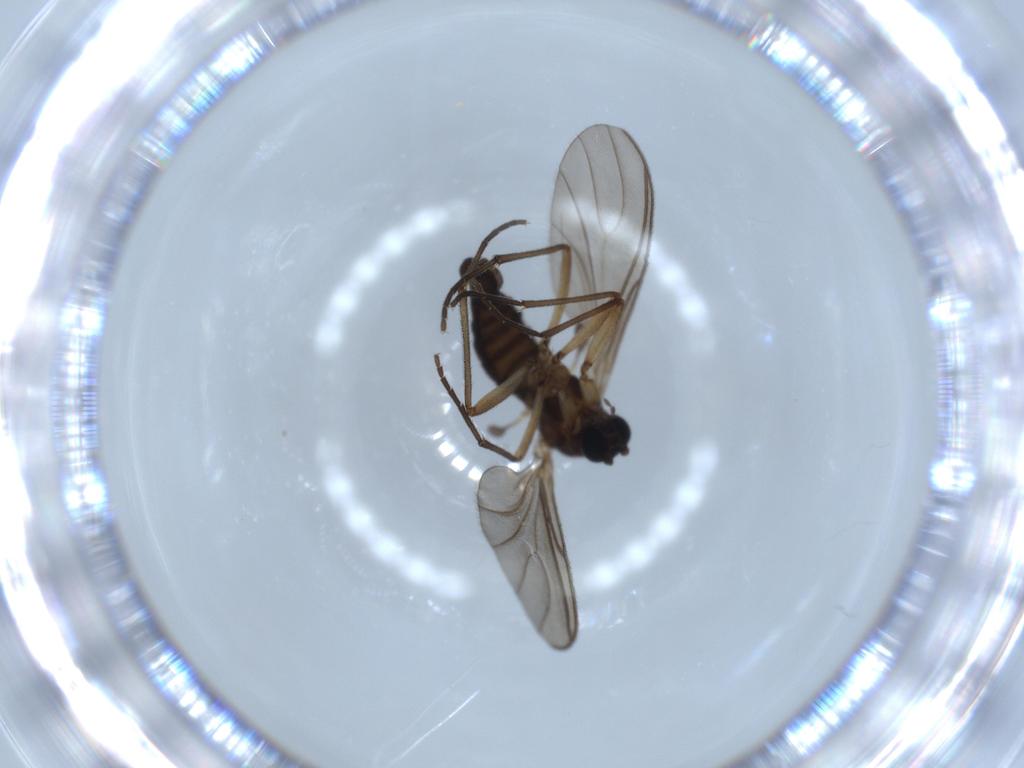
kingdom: Animalia
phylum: Arthropoda
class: Insecta
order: Diptera
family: Sciaridae
